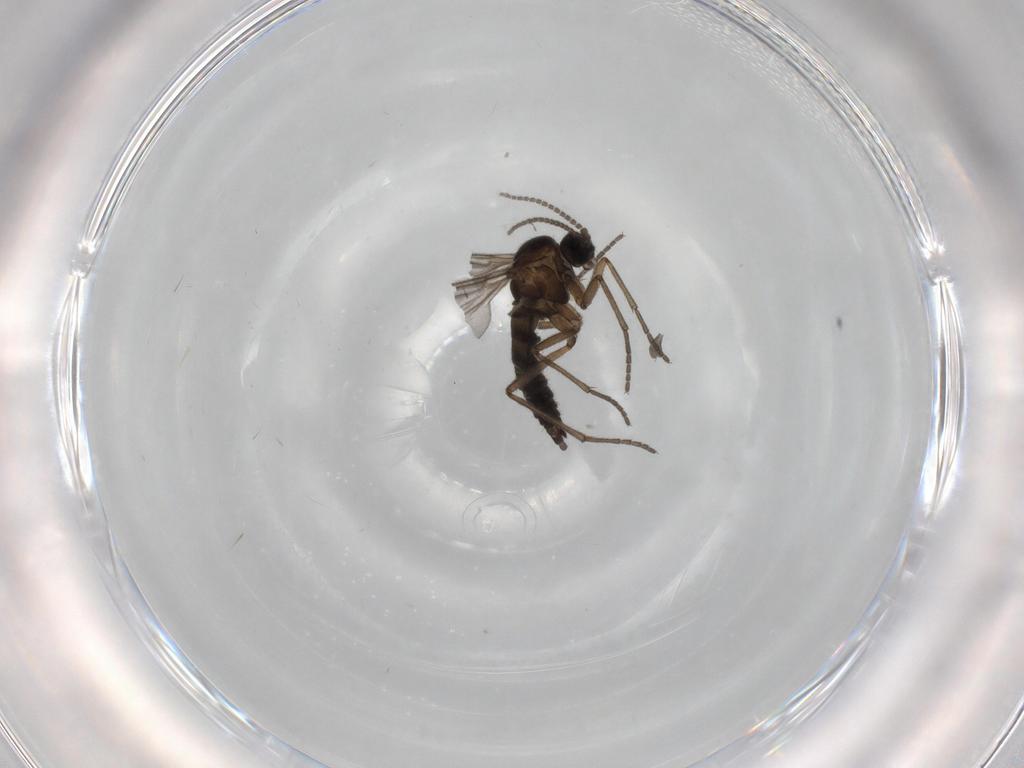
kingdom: Animalia
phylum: Arthropoda
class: Insecta
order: Diptera
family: Sciaridae
